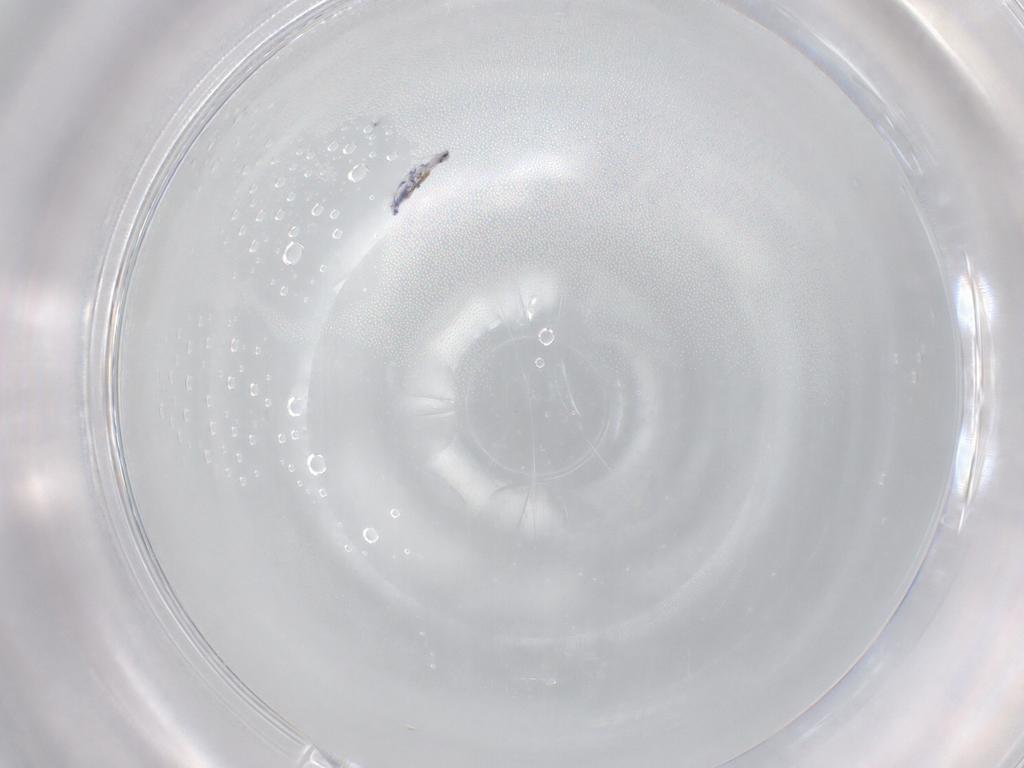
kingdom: Animalia
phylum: Arthropoda
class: Collembola
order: Entomobryomorpha
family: Entomobryidae
